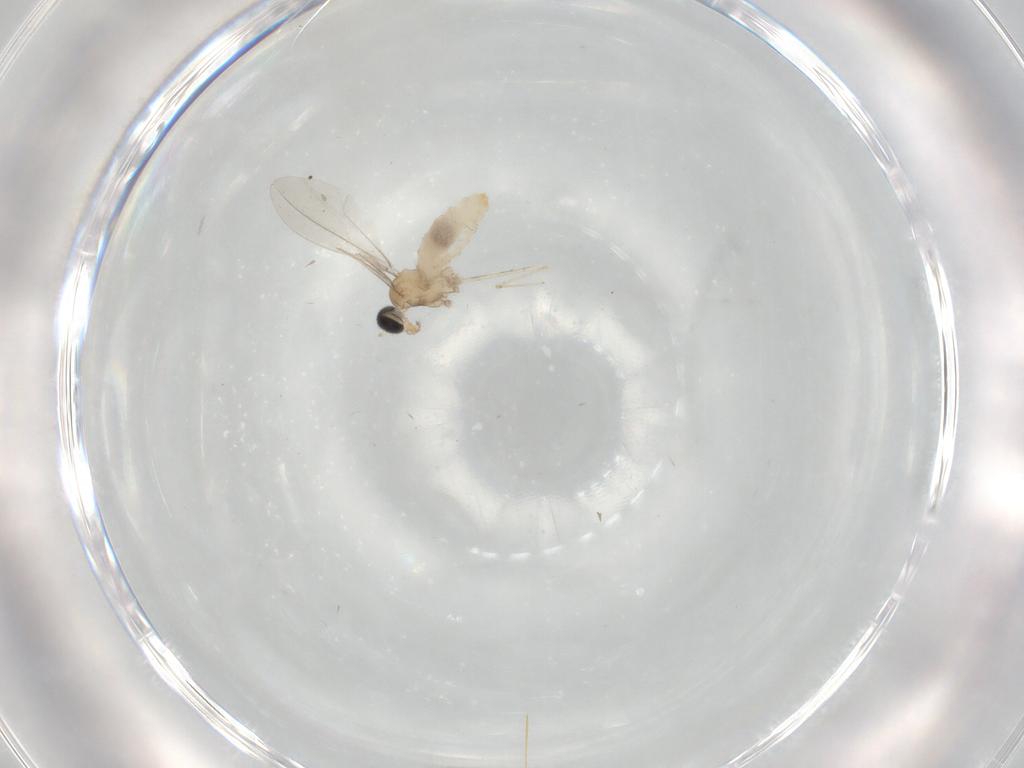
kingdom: Animalia
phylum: Arthropoda
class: Insecta
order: Diptera
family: Cecidomyiidae
